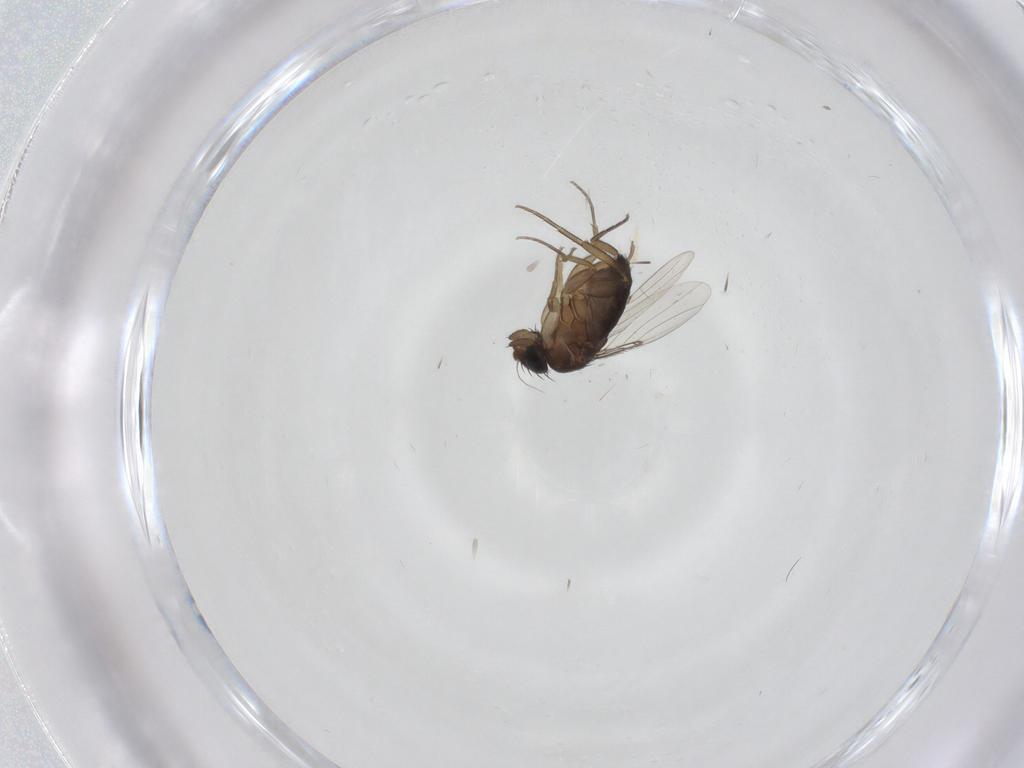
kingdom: Animalia
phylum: Arthropoda
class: Insecta
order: Diptera
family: Phoridae
